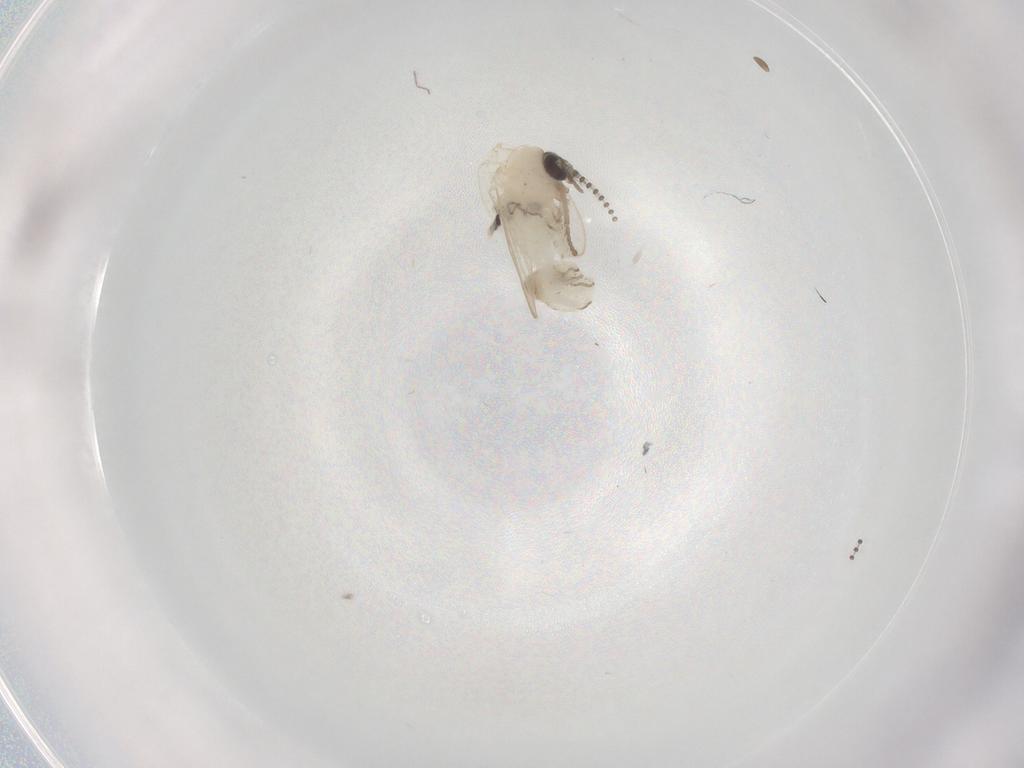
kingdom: Animalia
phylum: Arthropoda
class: Insecta
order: Diptera
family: Psychodidae
